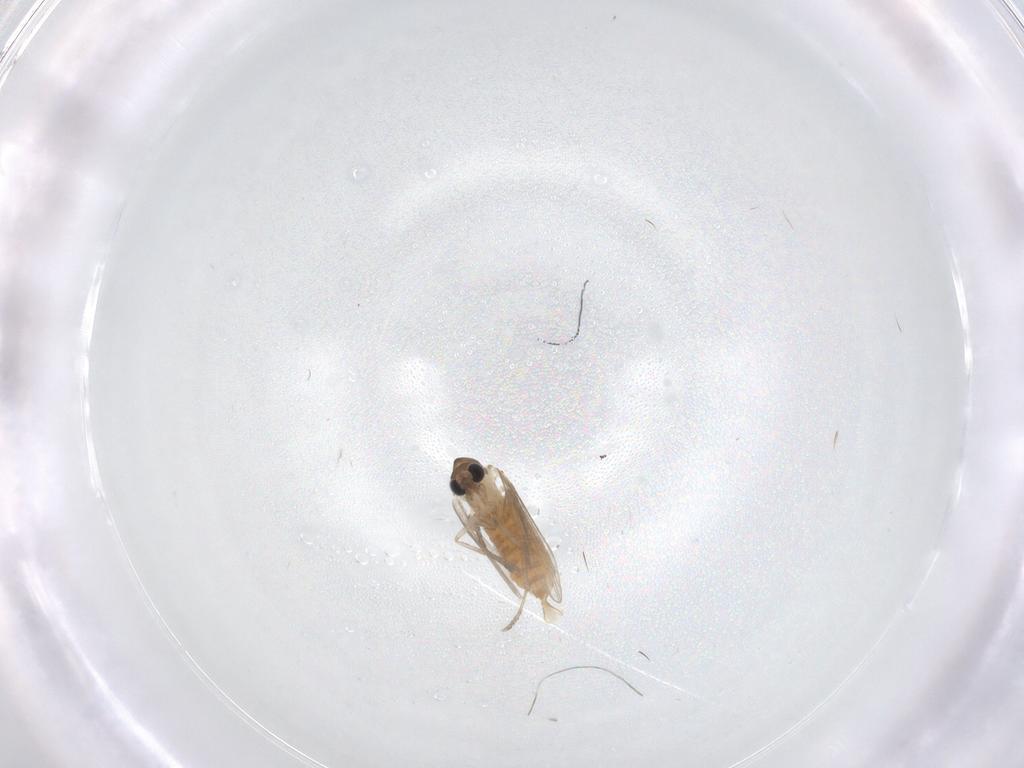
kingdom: Animalia
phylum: Arthropoda
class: Insecta
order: Diptera
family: Psychodidae
